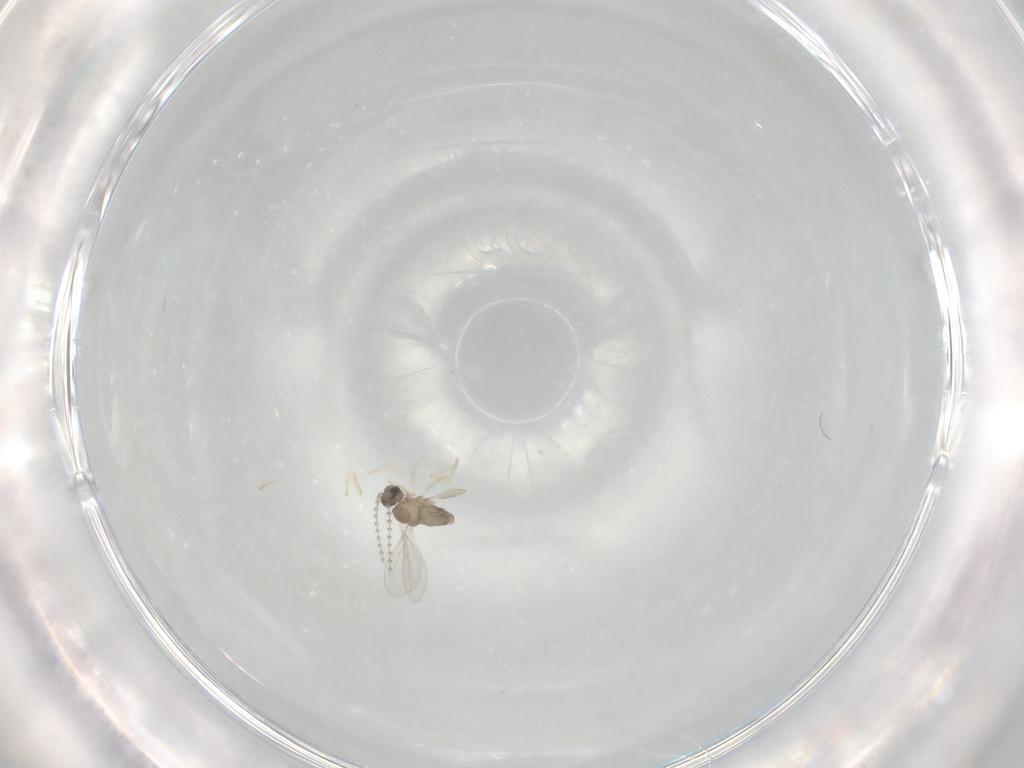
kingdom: Animalia
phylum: Arthropoda
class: Insecta
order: Diptera
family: Cecidomyiidae
